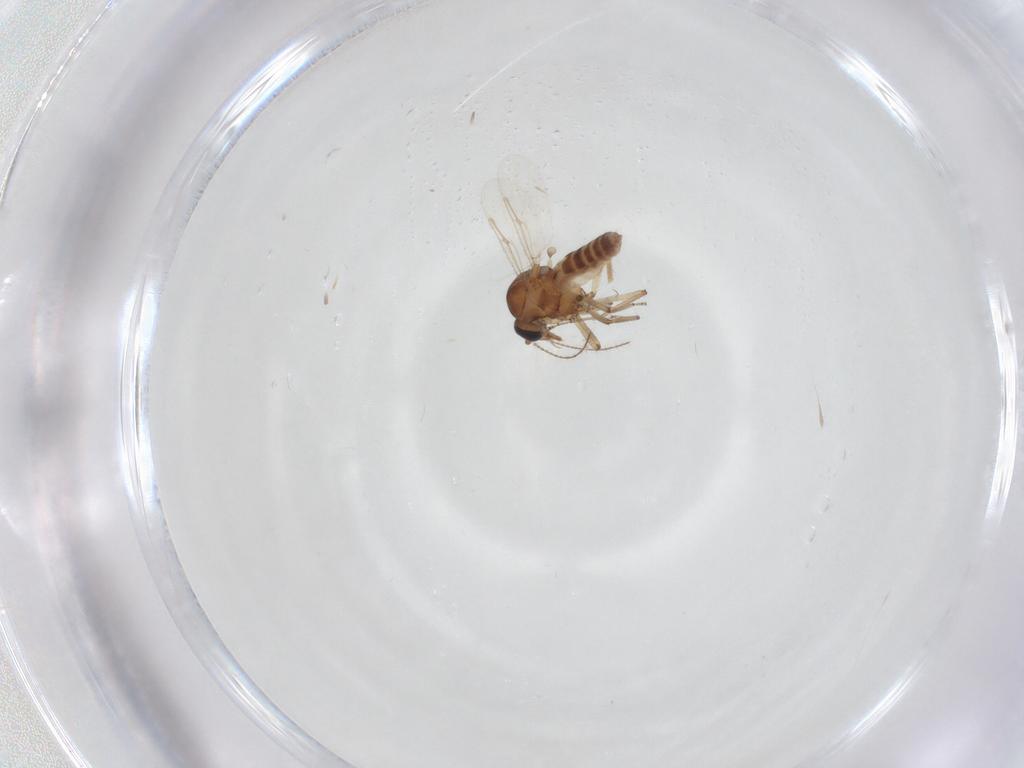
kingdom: Animalia
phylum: Arthropoda
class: Insecta
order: Diptera
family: Ceratopogonidae
